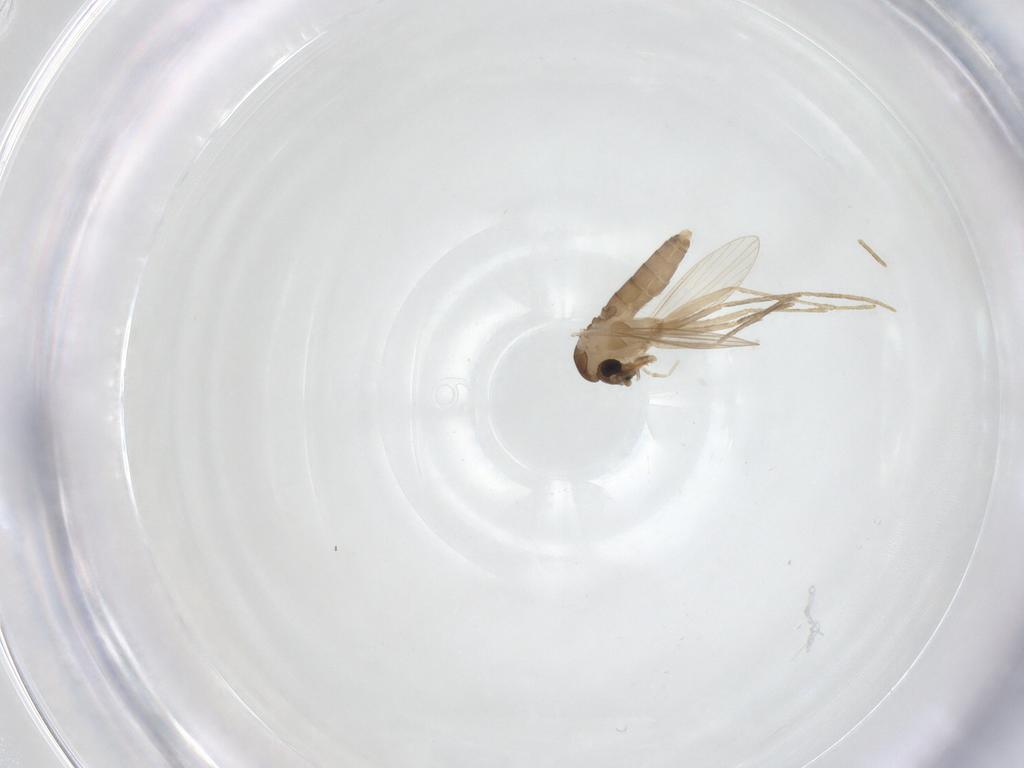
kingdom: Animalia
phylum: Arthropoda
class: Insecta
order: Diptera
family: Psychodidae
